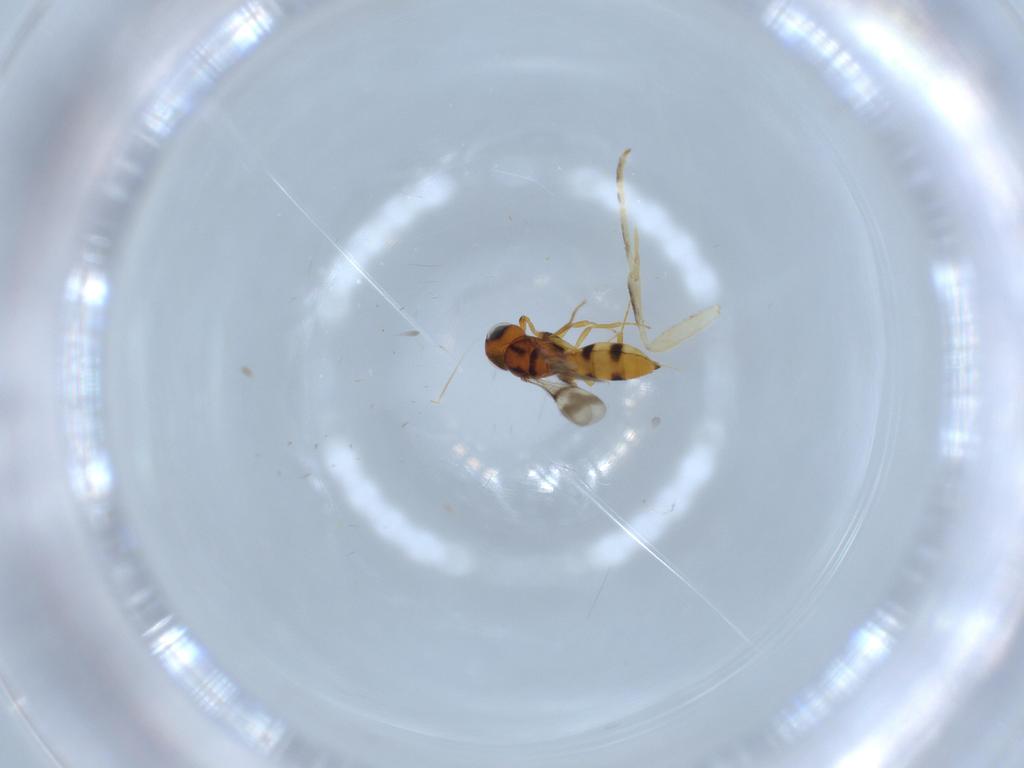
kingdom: Animalia
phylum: Arthropoda
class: Insecta
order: Hymenoptera
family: Scelionidae
